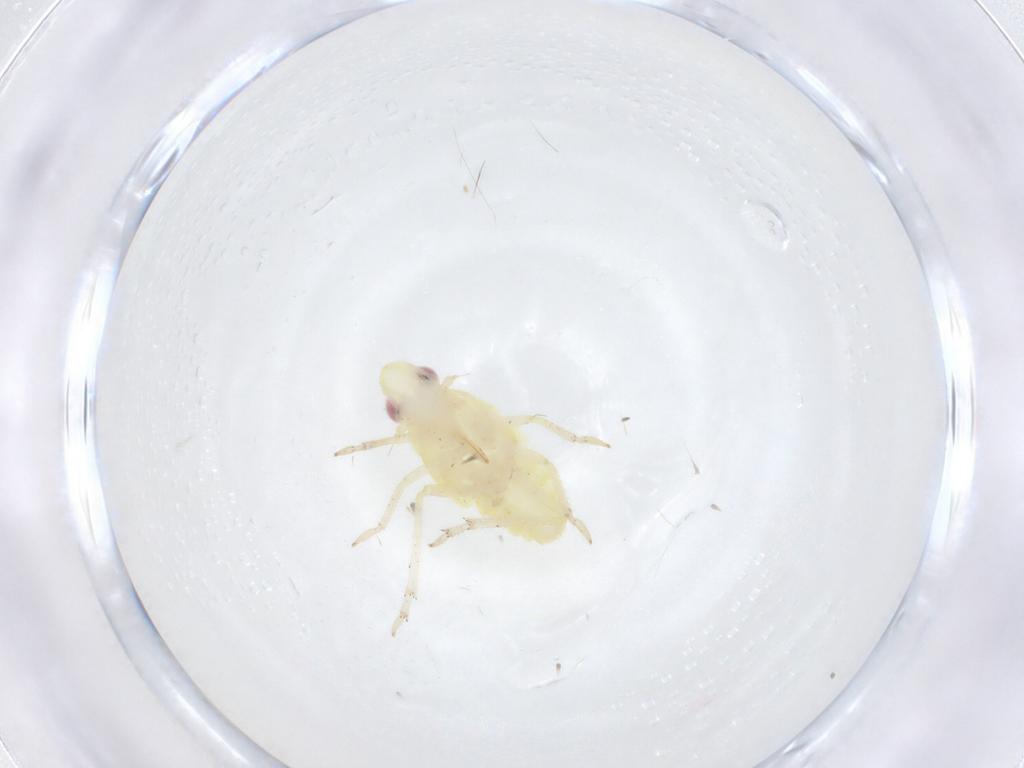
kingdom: Animalia
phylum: Arthropoda
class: Insecta
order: Hemiptera
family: Tropiduchidae
